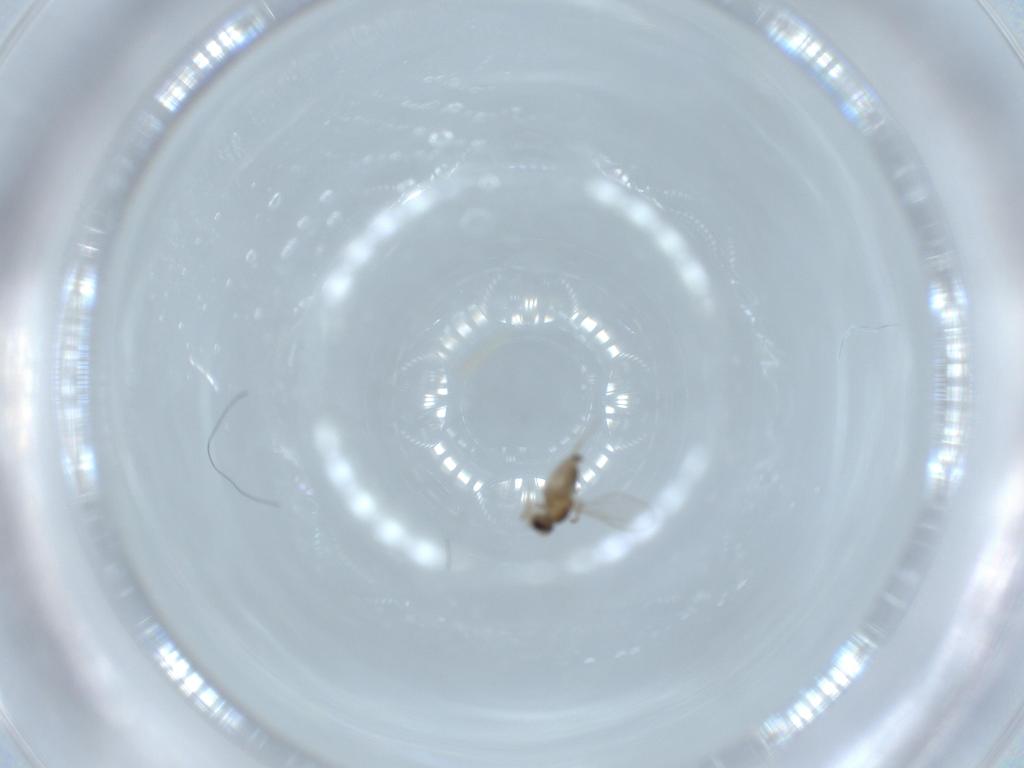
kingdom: Animalia
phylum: Arthropoda
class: Insecta
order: Diptera
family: Cecidomyiidae
